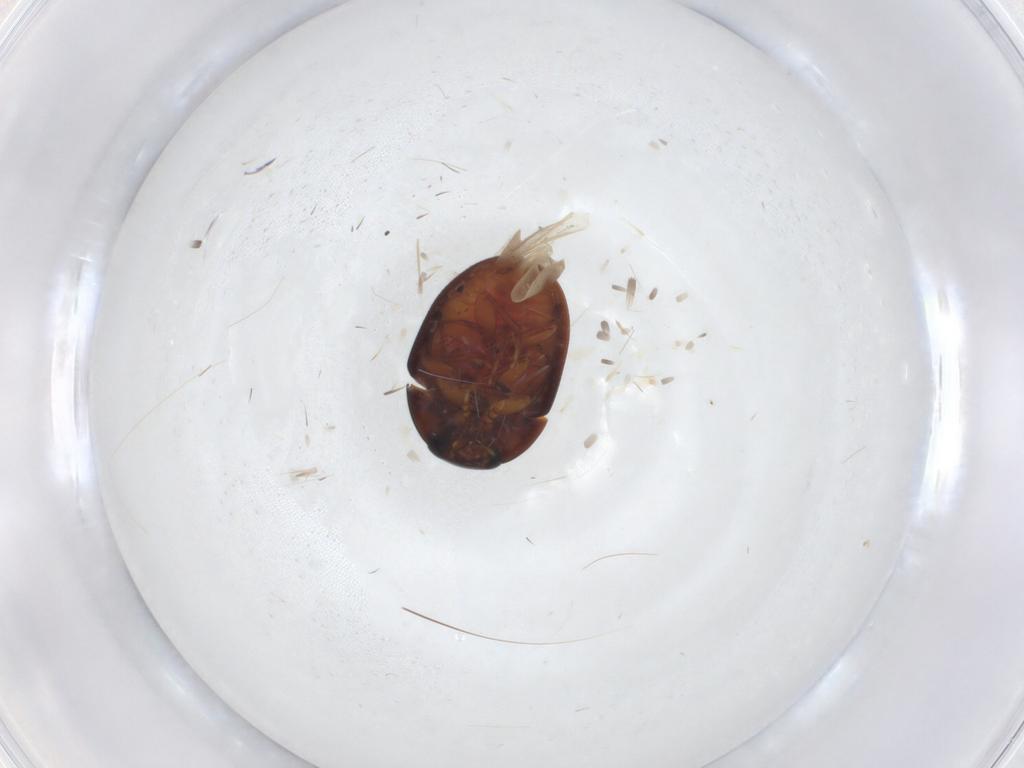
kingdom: Animalia
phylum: Arthropoda
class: Insecta
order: Coleoptera
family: Phalacridae
